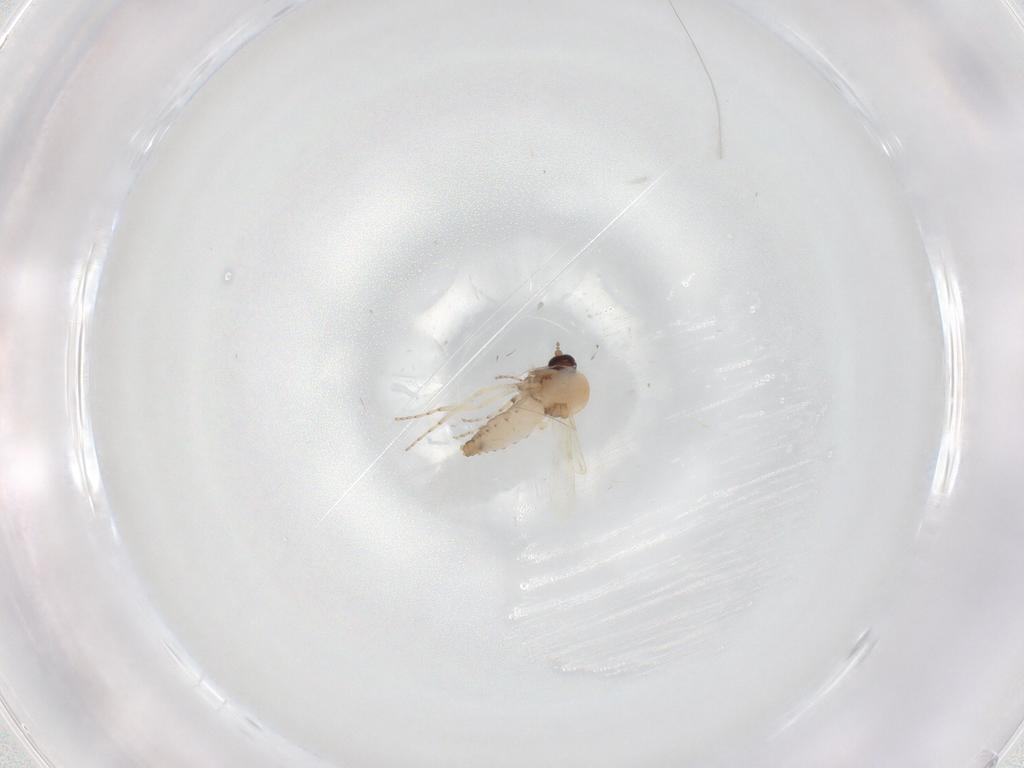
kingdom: Animalia
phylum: Arthropoda
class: Insecta
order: Diptera
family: Ceratopogonidae
